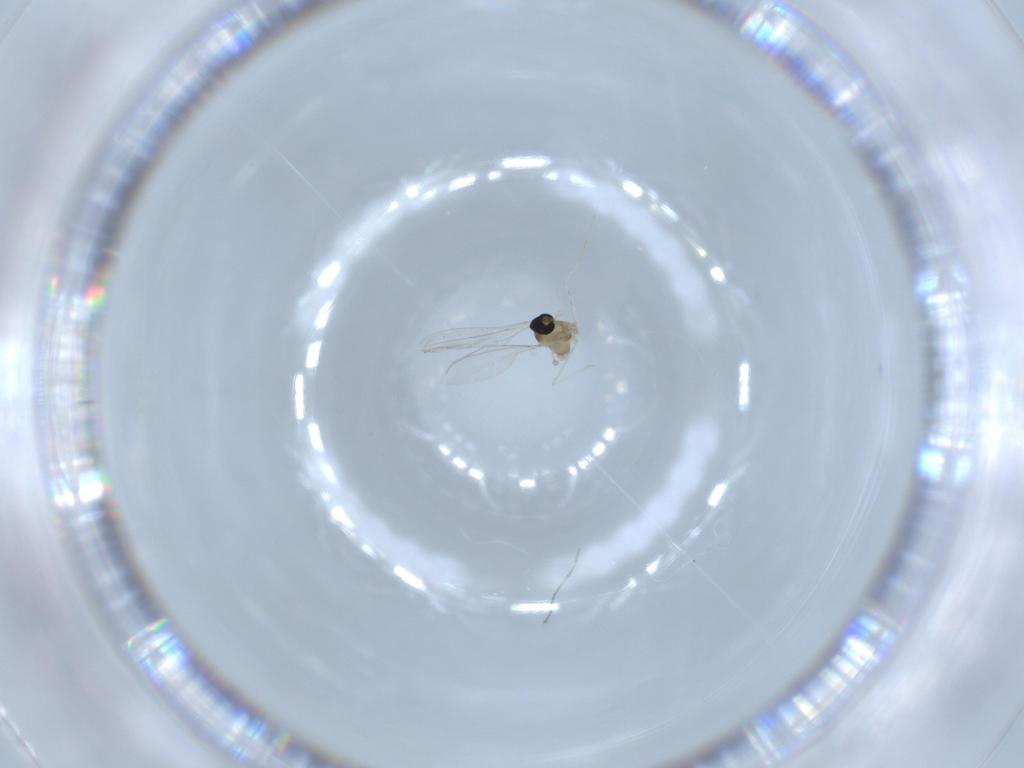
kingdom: Animalia
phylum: Arthropoda
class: Insecta
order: Diptera
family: Cecidomyiidae
